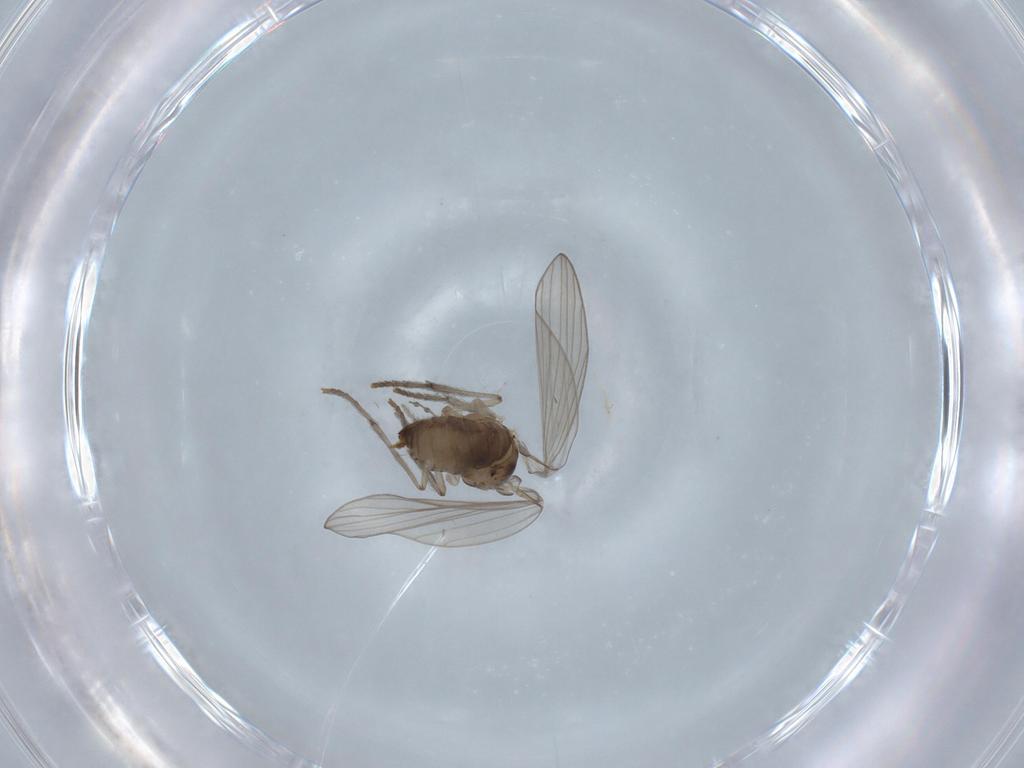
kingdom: Animalia
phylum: Arthropoda
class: Insecta
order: Diptera
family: Psychodidae
